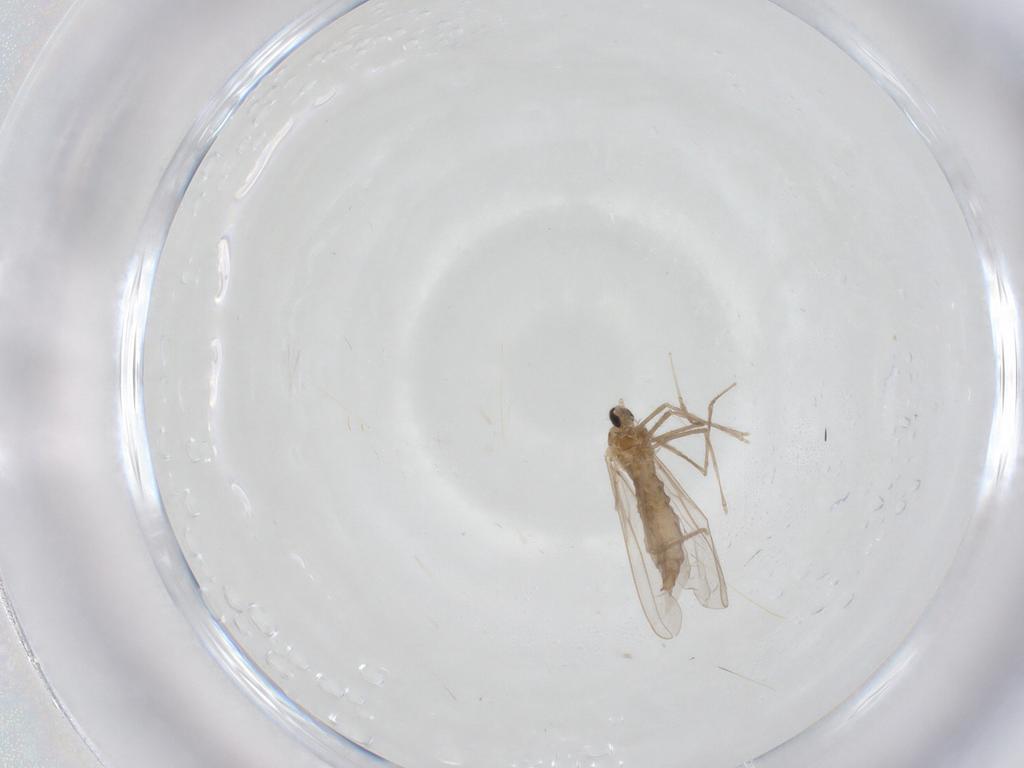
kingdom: Animalia
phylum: Arthropoda
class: Insecta
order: Diptera
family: Cecidomyiidae
